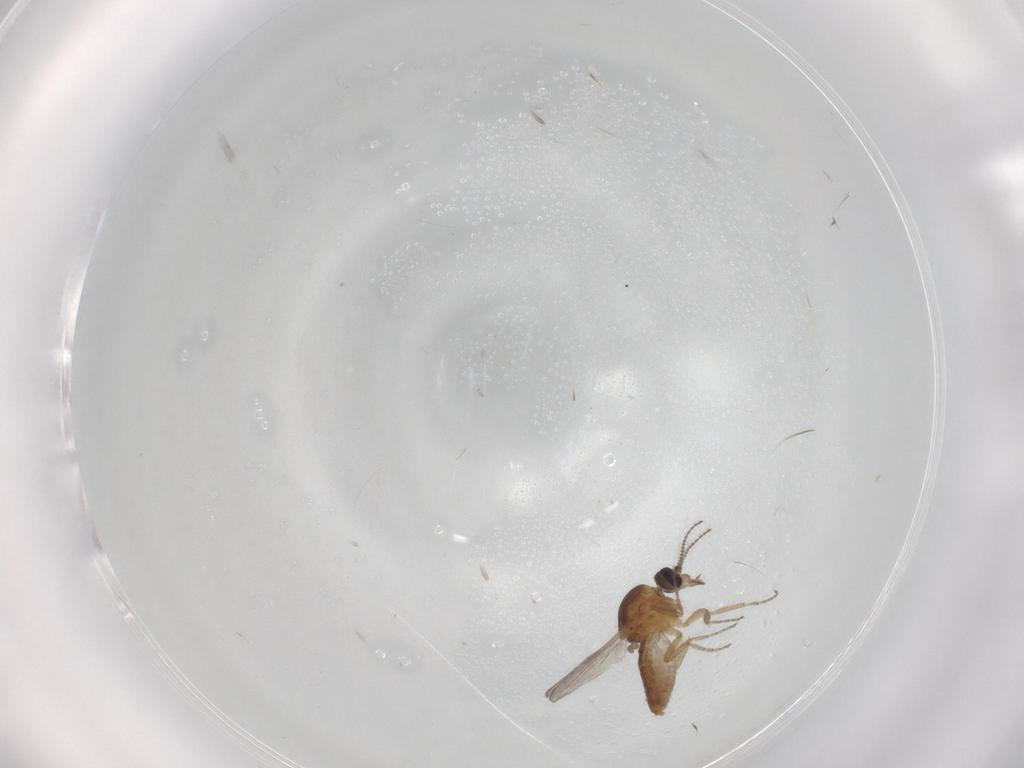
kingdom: Animalia
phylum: Arthropoda
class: Insecta
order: Diptera
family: Ceratopogonidae
